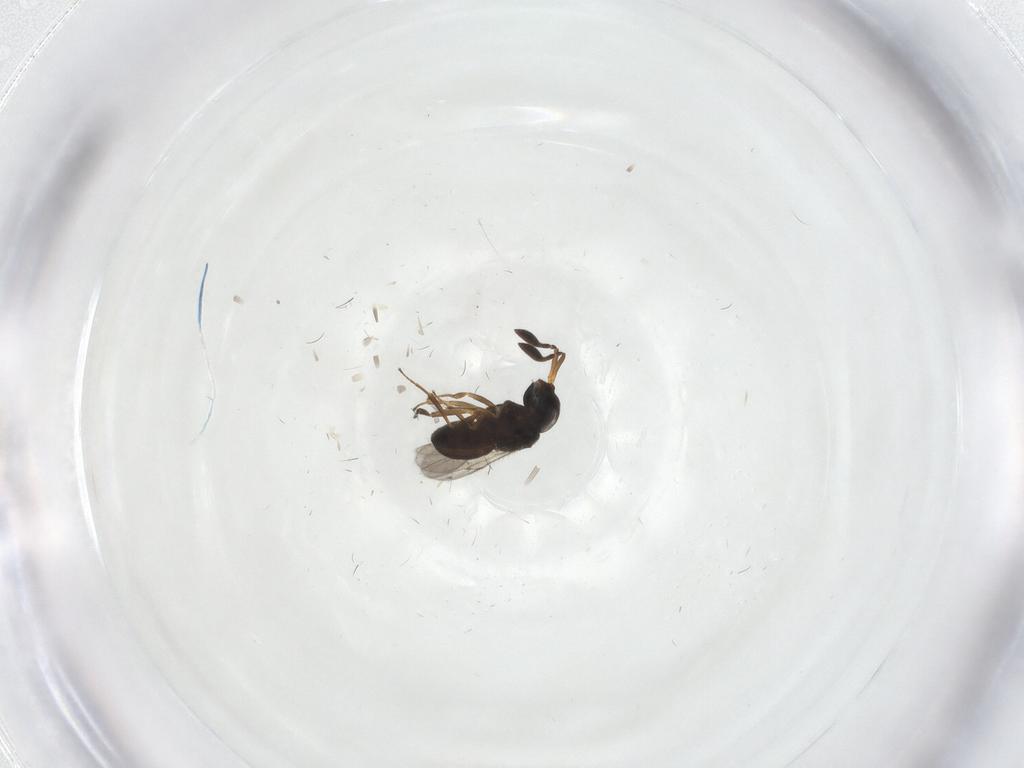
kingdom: Animalia
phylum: Arthropoda
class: Insecta
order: Hymenoptera
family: Scelionidae
